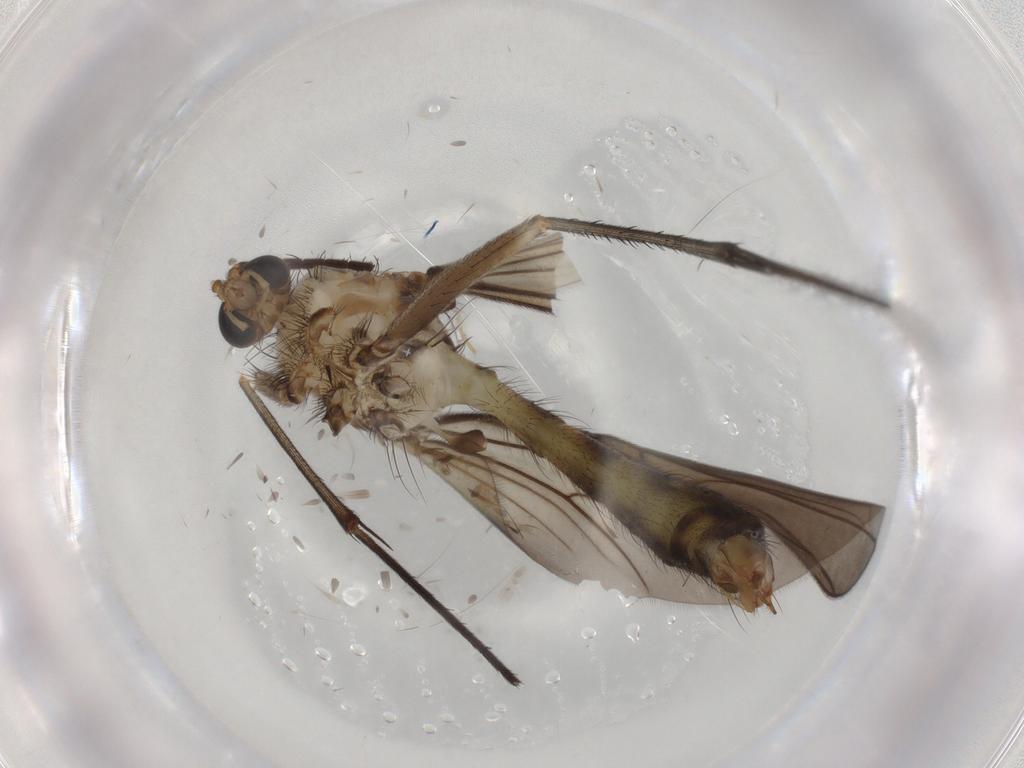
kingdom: Animalia
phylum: Arthropoda
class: Insecta
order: Diptera
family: Mycetophilidae
